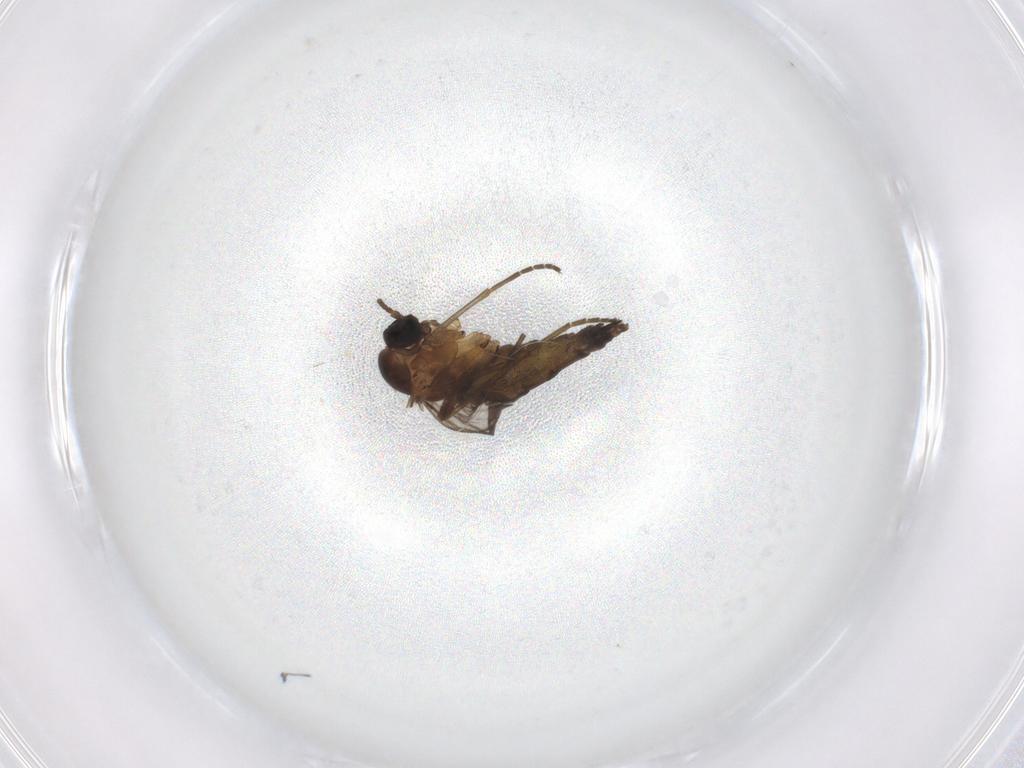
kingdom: Animalia
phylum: Arthropoda
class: Insecta
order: Diptera
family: Sciaridae
